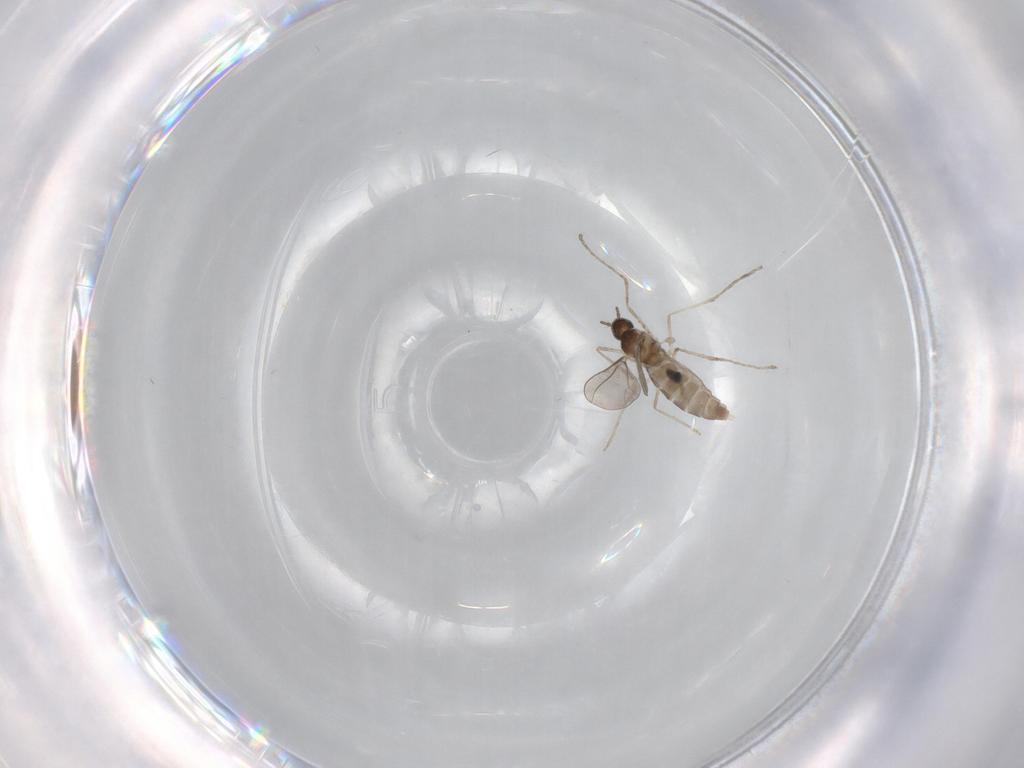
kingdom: Animalia
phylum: Arthropoda
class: Insecta
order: Diptera
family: Cecidomyiidae
